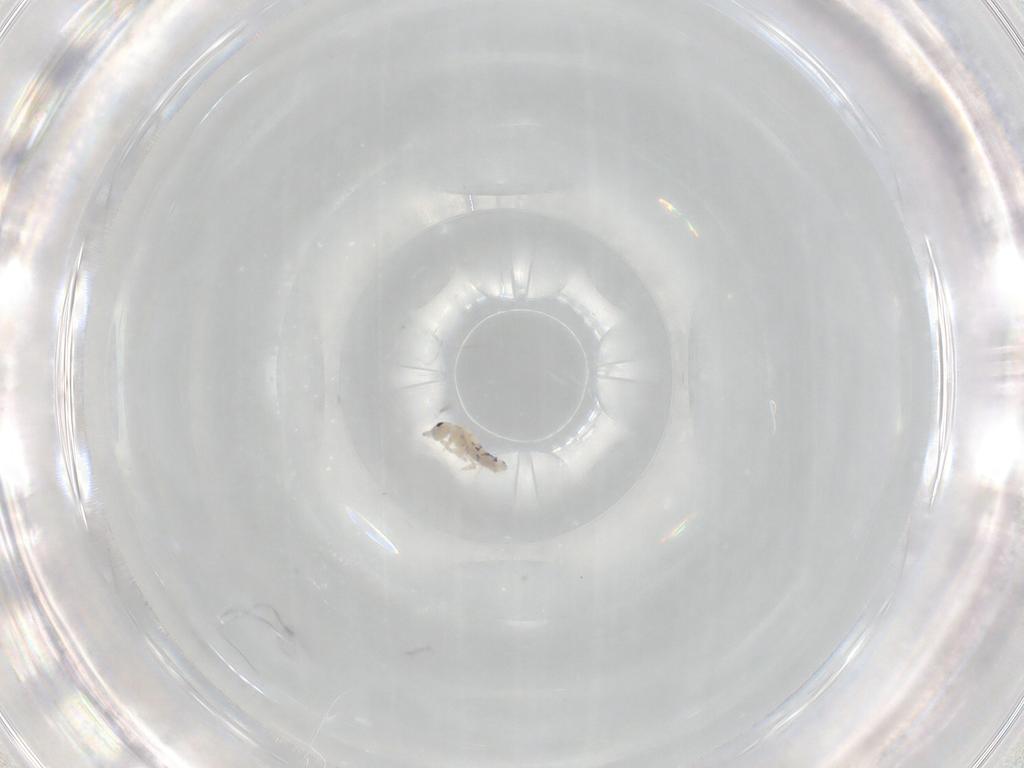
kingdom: Animalia
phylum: Arthropoda
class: Collembola
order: Entomobryomorpha
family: Entomobryidae
